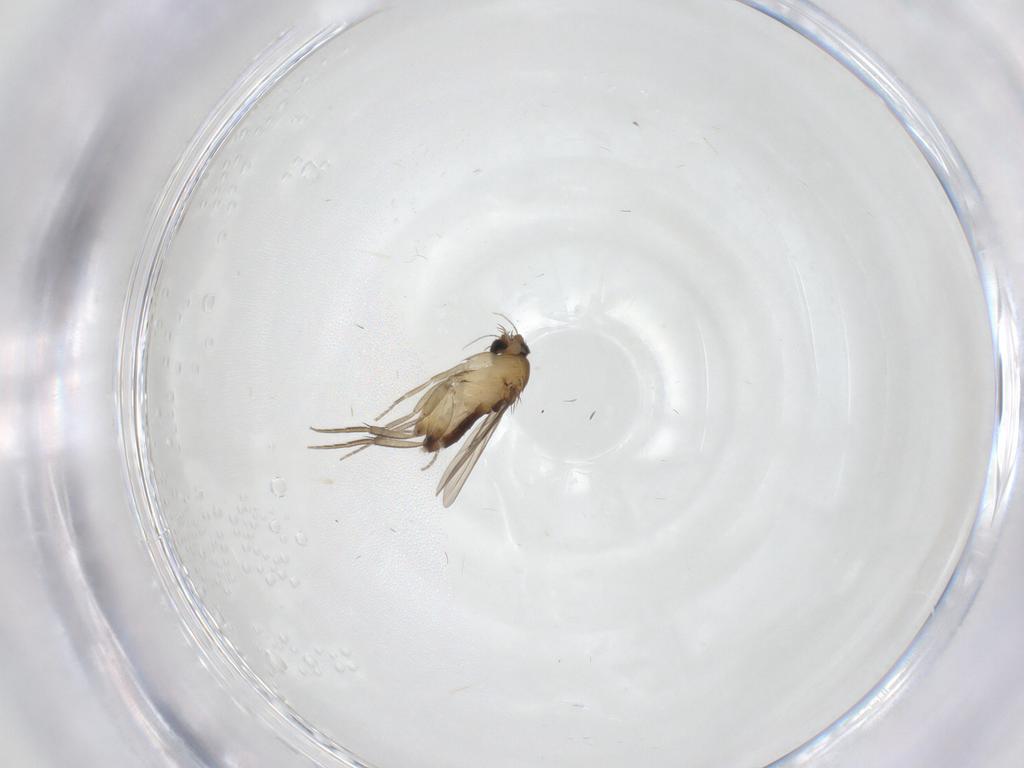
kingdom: Animalia
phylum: Arthropoda
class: Insecta
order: Diptera
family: Phoridae
